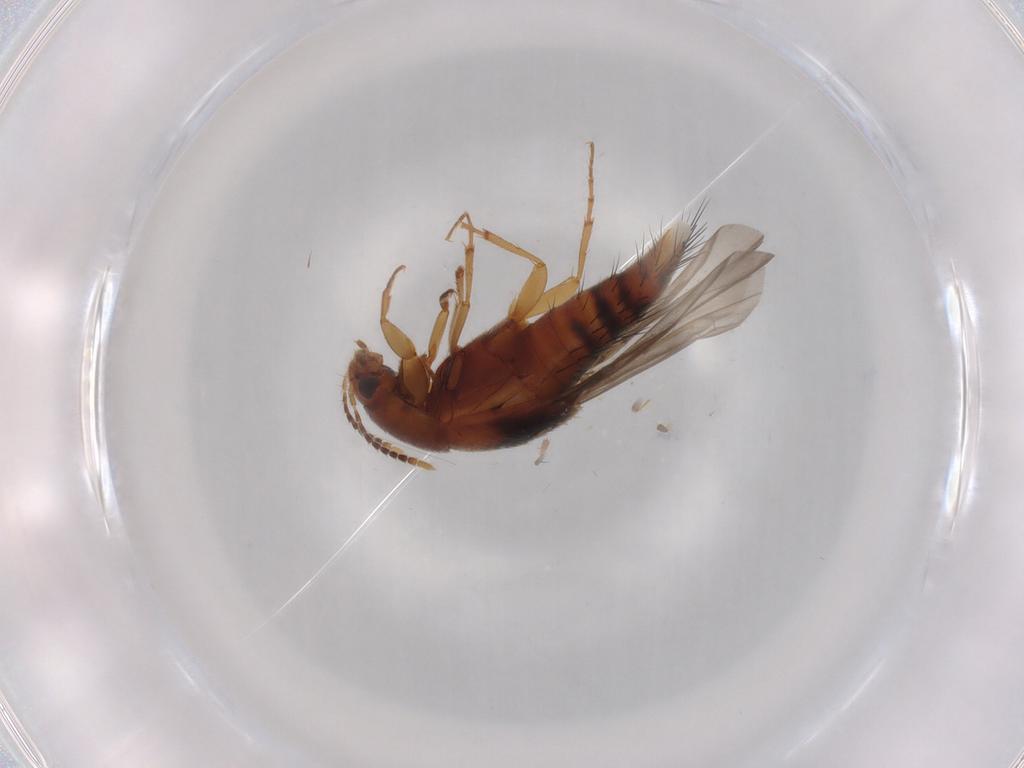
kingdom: Animalia
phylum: Arthropoda
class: Insecta
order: Coleoptera
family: Staphylinidae
